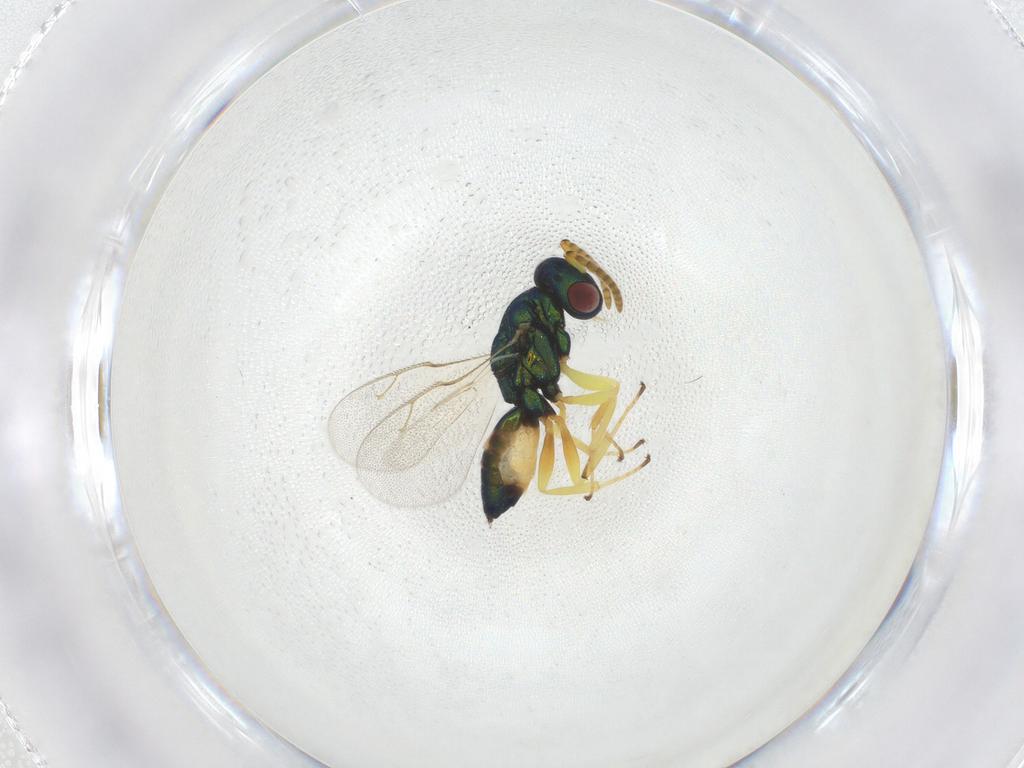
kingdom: Animalia
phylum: Arthropoda
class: Insecta
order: Hymenoptera
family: Pteromalidae
